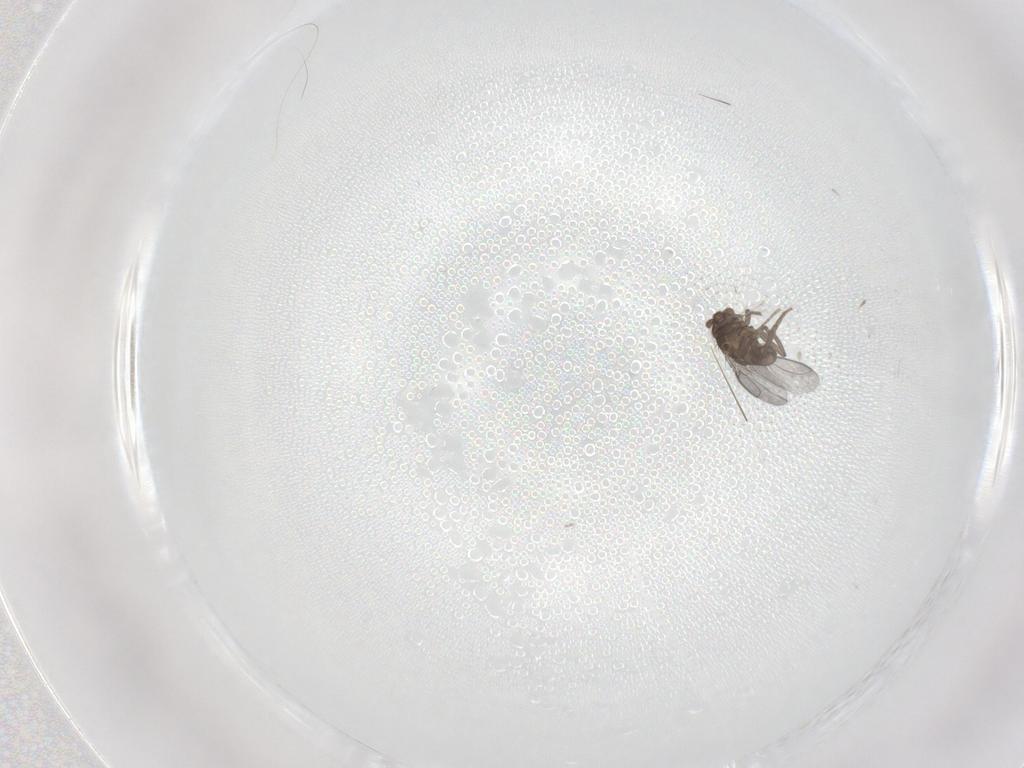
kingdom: Animalia
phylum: Arthropoda
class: Insecta
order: Diptera
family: Sphaeroceridae
